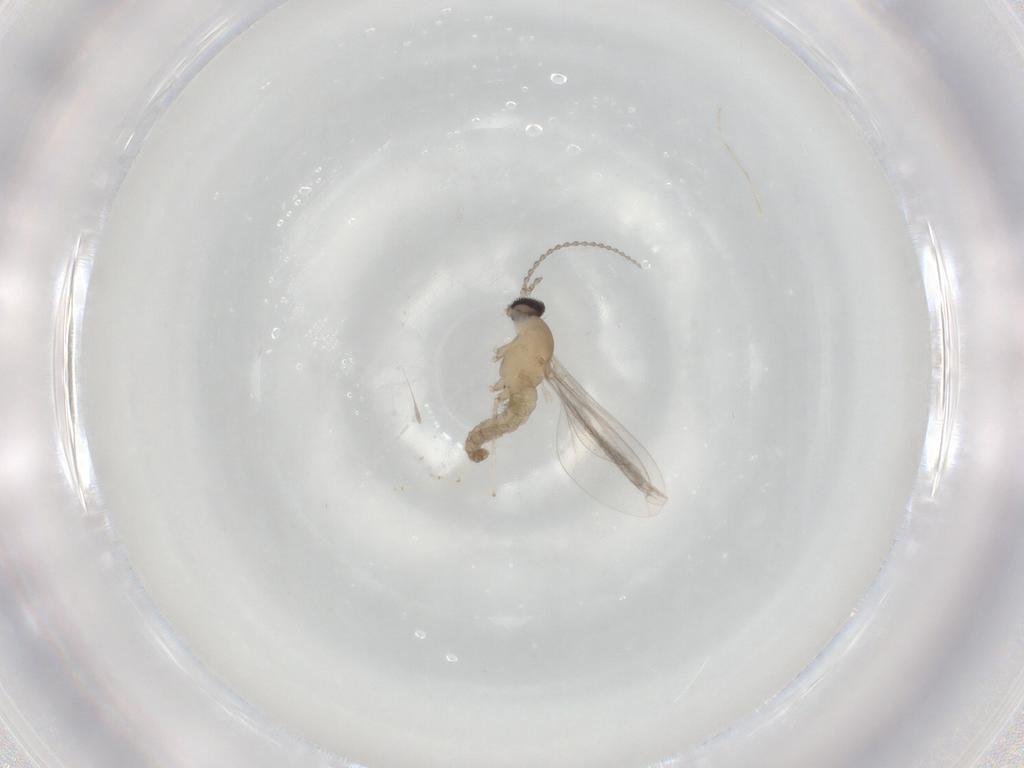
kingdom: Animalia
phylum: Arthropoda
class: Insecta
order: Diptera
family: Cecidomyiidae
